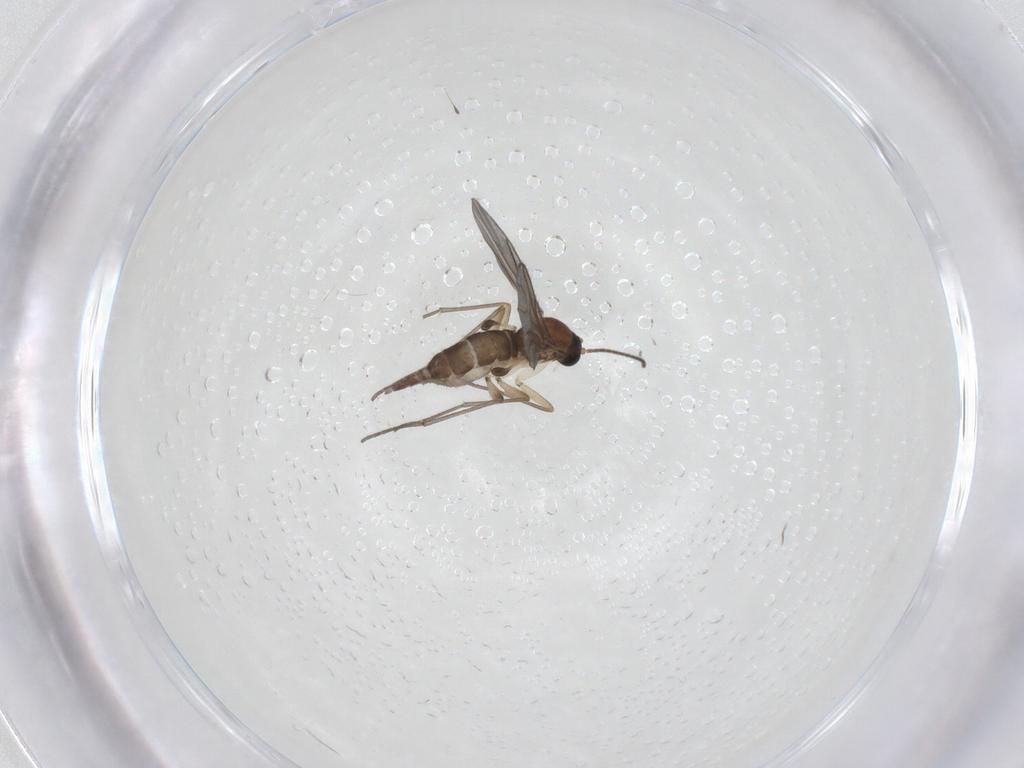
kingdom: Animalia
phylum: Arthropoda
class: Insecta
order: Diptera
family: Sciaridae
